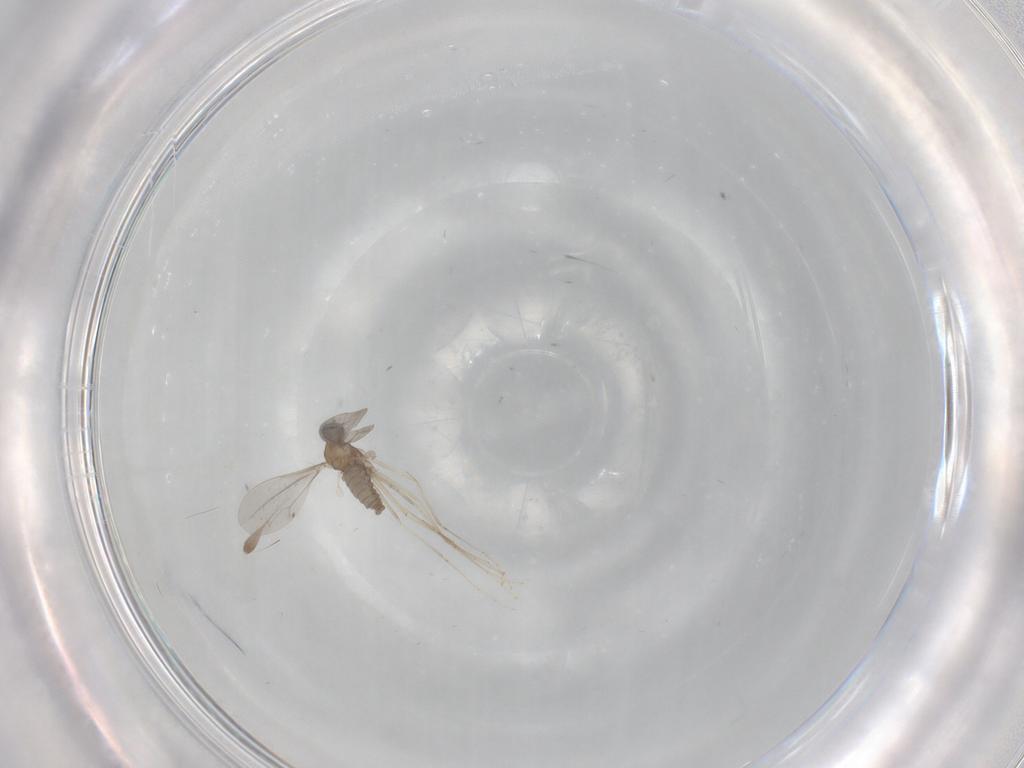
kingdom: Animalia
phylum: Arthropoda
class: Insecta
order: Diptera
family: Cecidomyiidae
